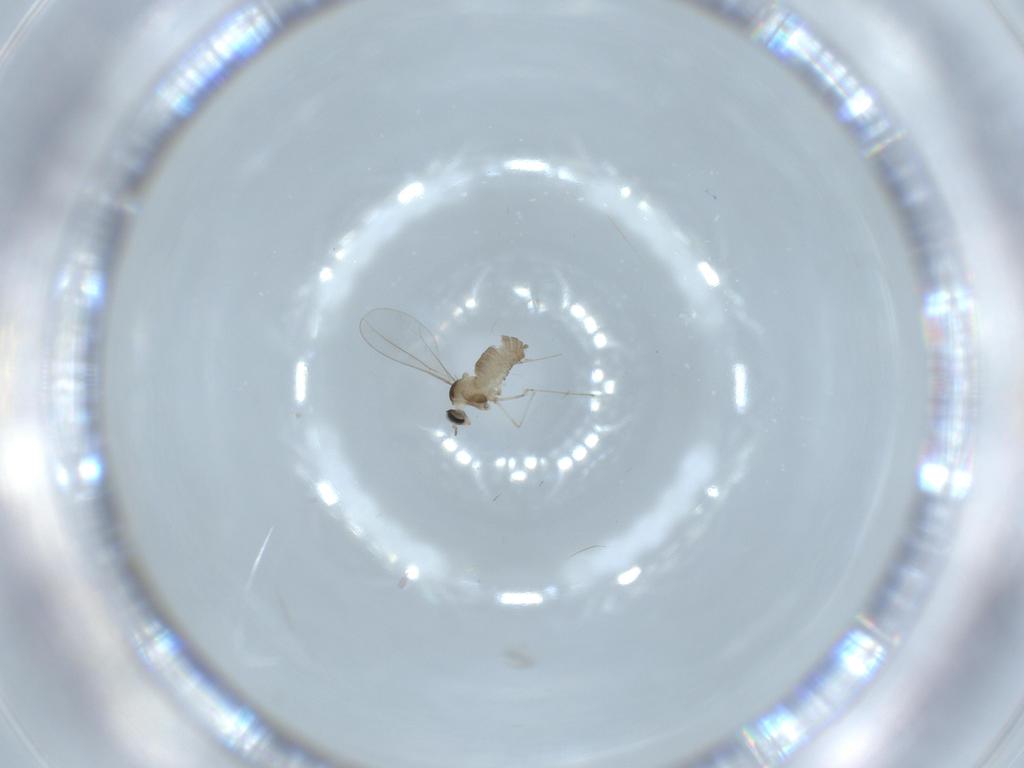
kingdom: Animalia
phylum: Arthropoda
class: Insecta
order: Diptera
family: Cecidomyiidae
